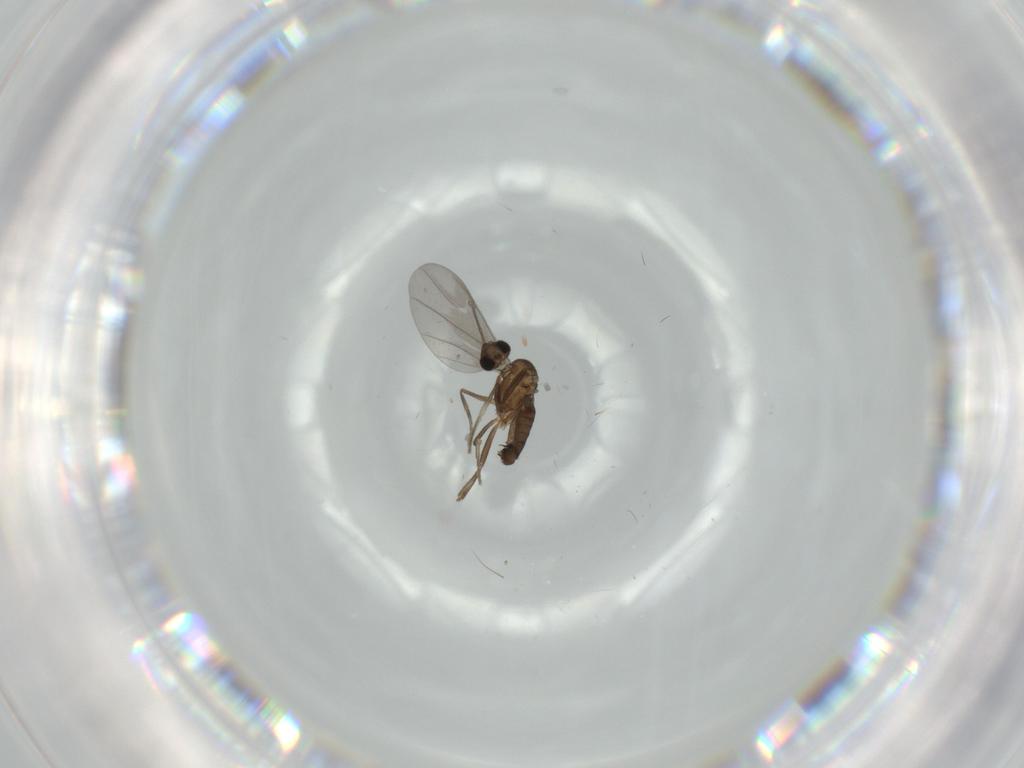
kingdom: Animalia
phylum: Arthropoda
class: Insecta
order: Diptera
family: Phoridae
